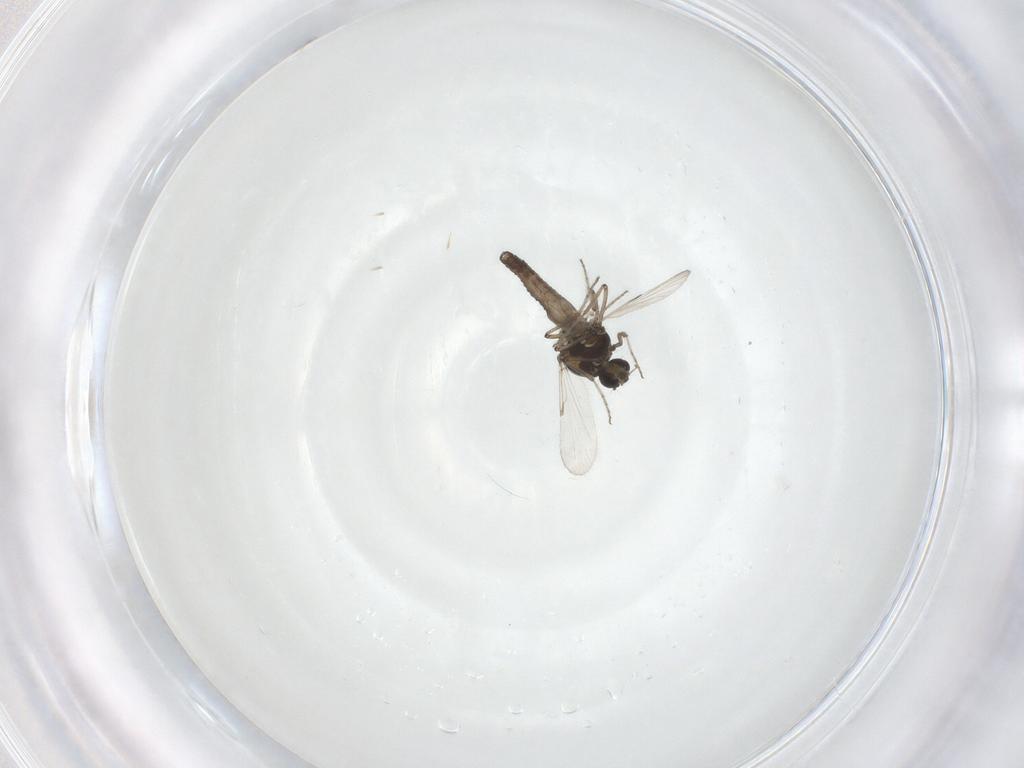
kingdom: Animalia
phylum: Arthropoda
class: Insecta
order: Diptera
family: Ceratopogonidae
